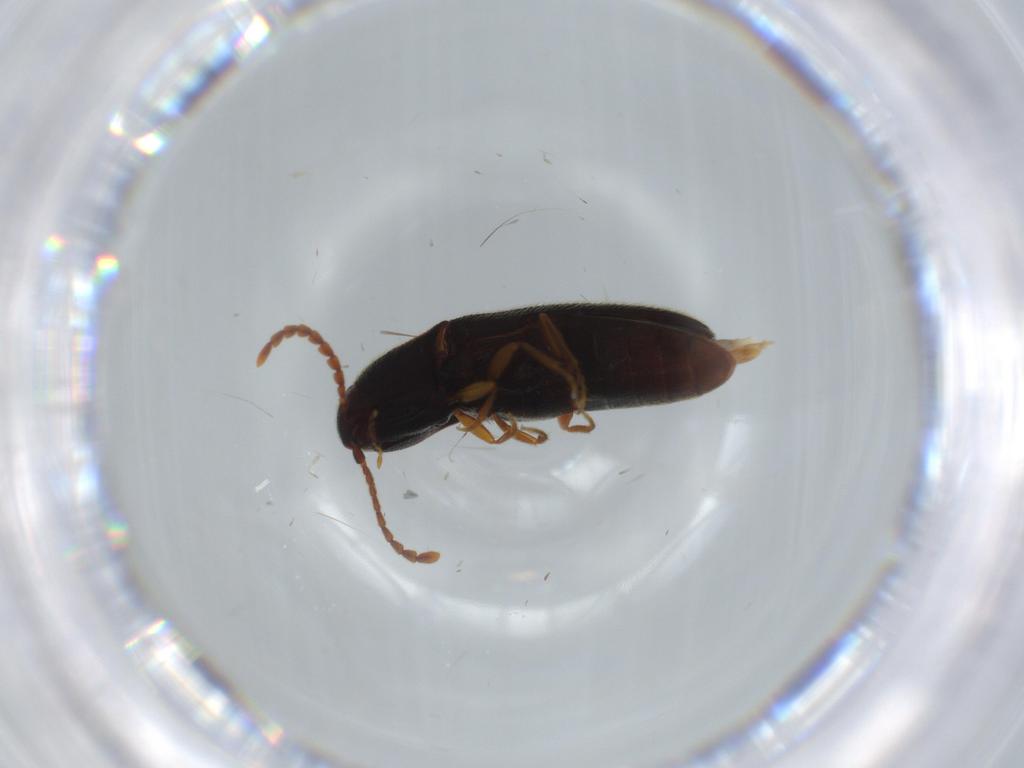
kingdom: Animalia
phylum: Arthropoda
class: Insecta
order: Coleoptera
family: Elateridae
